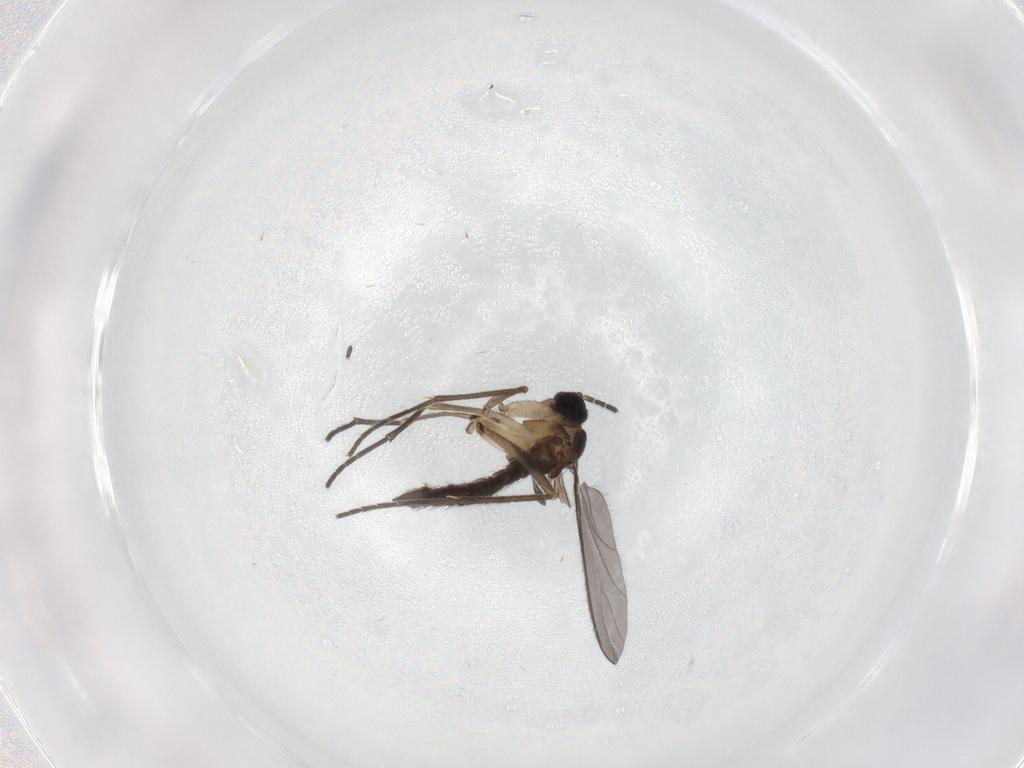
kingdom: Animalia
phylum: Arthropoda
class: Insecta
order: Diptera
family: Sciaridae
